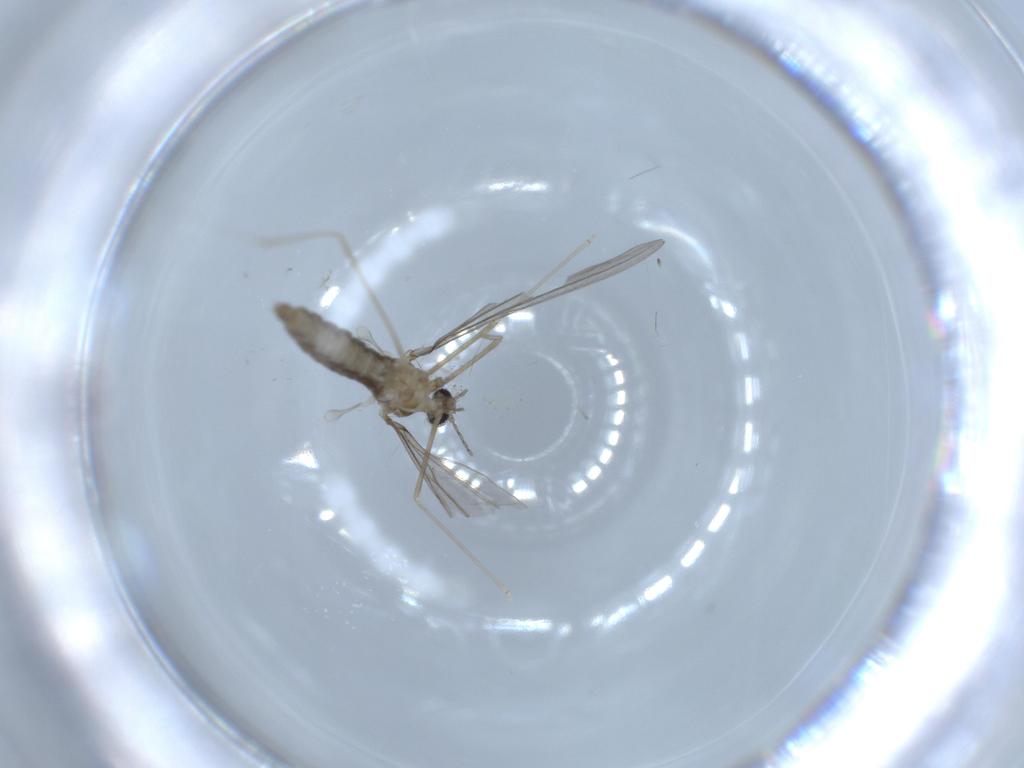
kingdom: Animalia
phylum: Arthropoda
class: Insecta
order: Diptera
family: Cecidomyiidae
